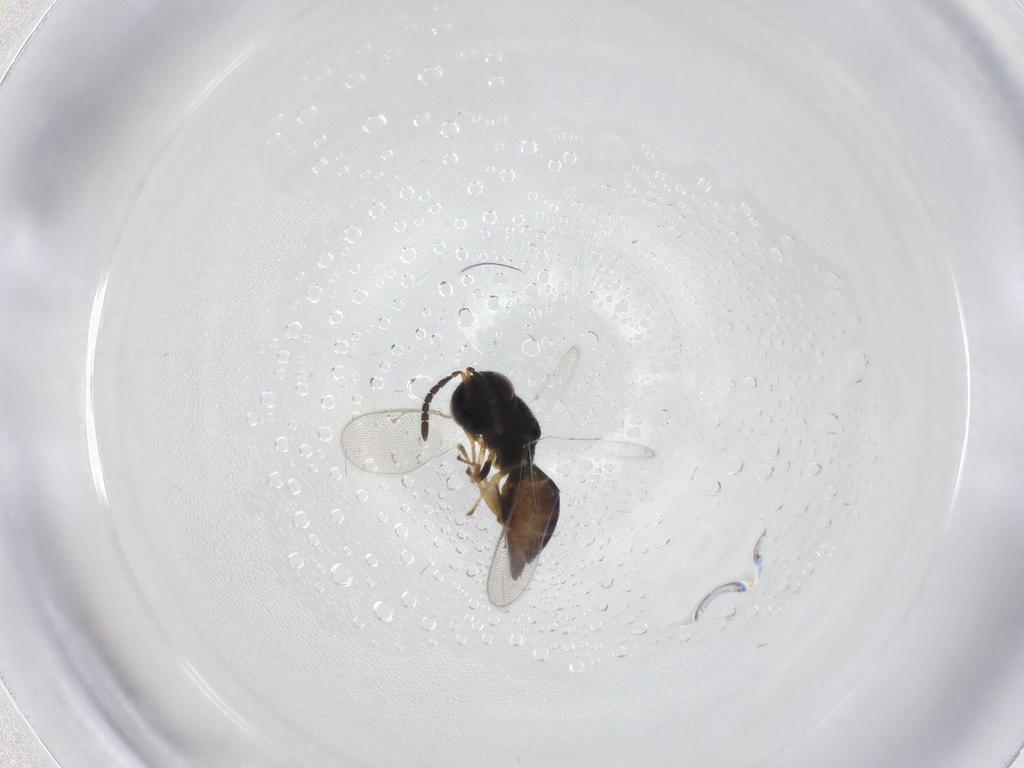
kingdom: Animalia
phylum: Arthropoda
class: Insecta
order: Hymenoptera
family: Pteromalidae
